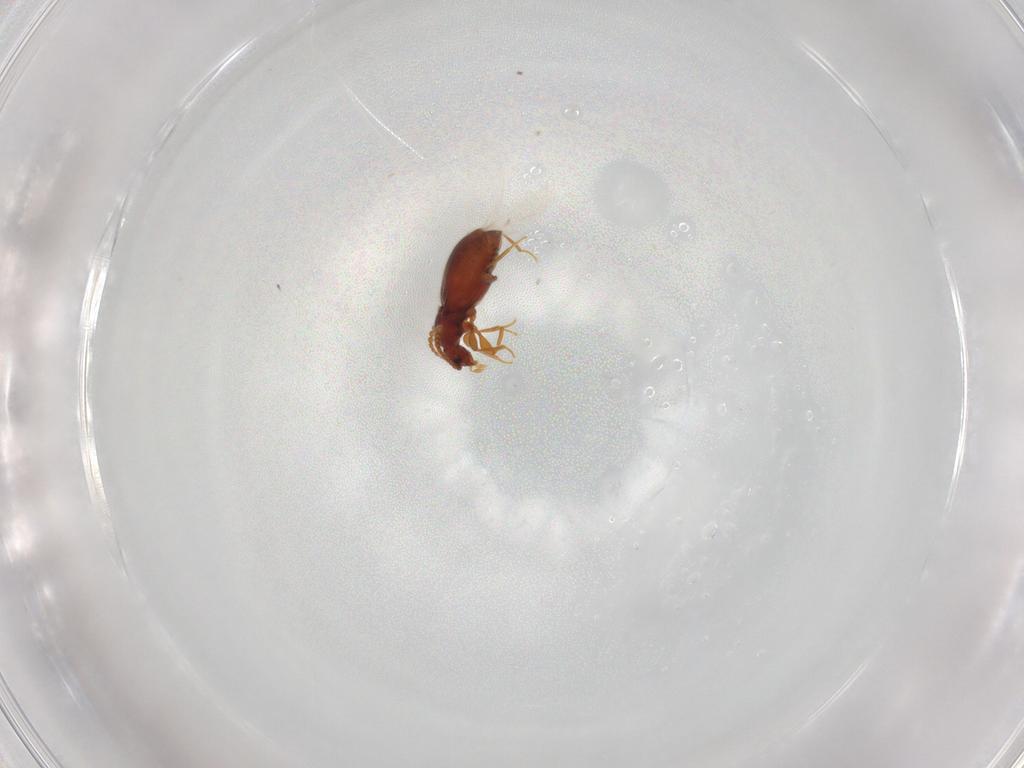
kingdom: Animalia
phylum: Arthropoda
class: Insecta
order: Coleoptera
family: Staphylinidae
